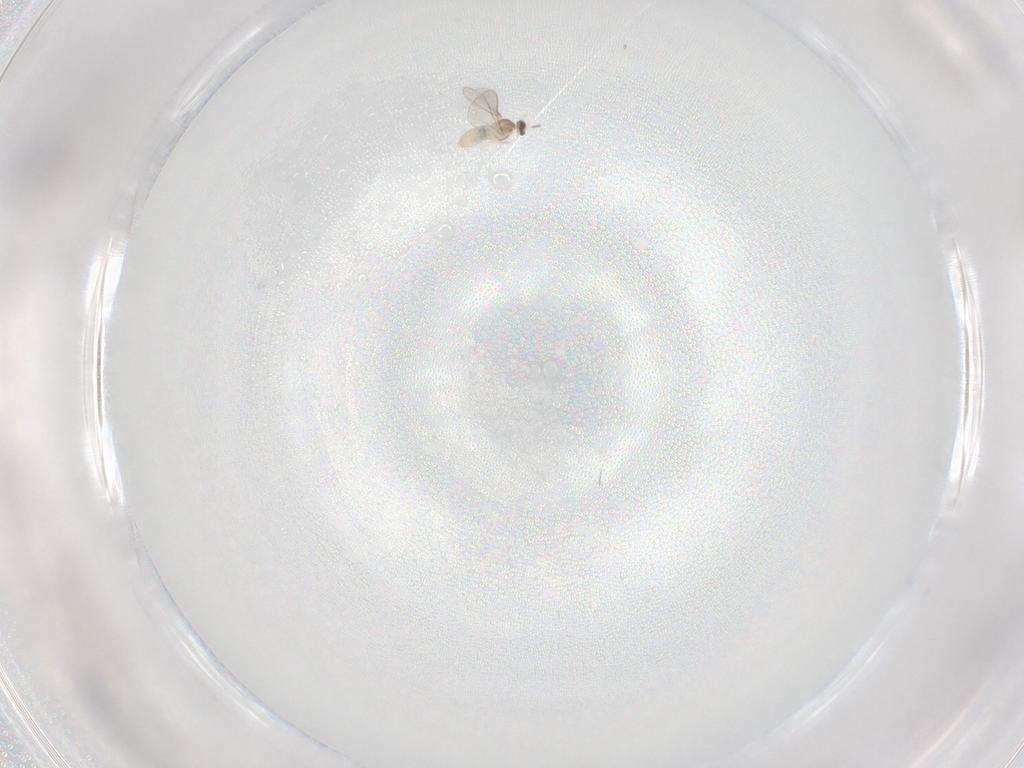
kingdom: Animalia
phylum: Arthropoda
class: Insecta
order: Diptera
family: Cecidomyiidae
